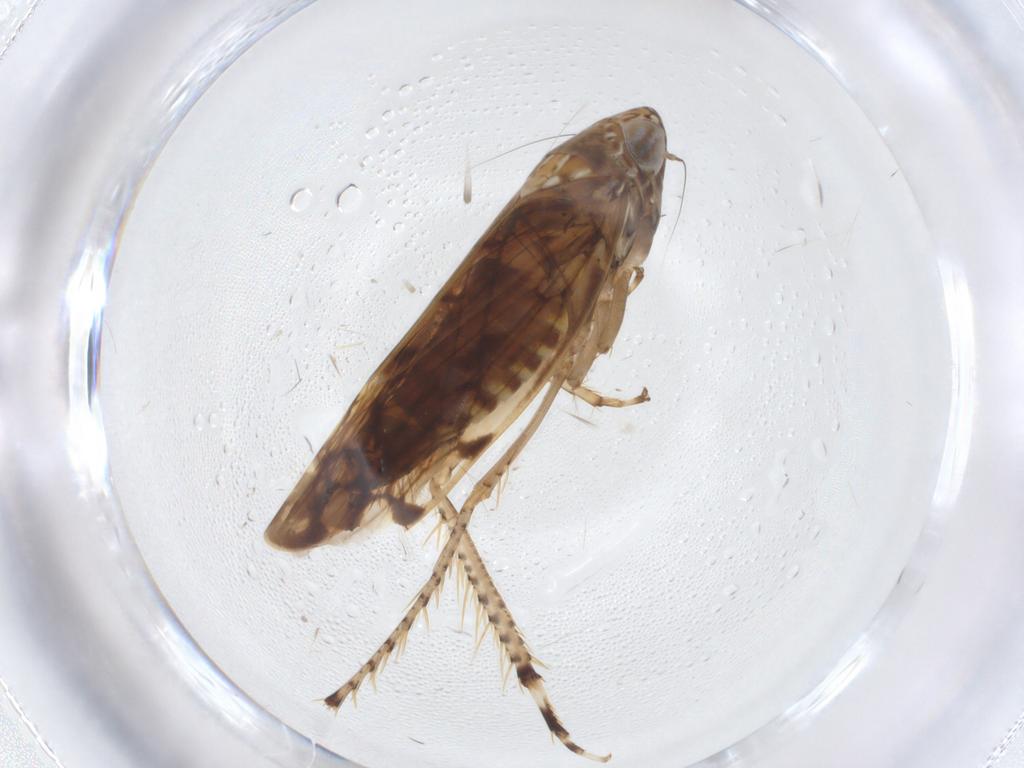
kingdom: Animalia
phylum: Arthropoda
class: Insecta
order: Hemiptera
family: Cicadellidae
